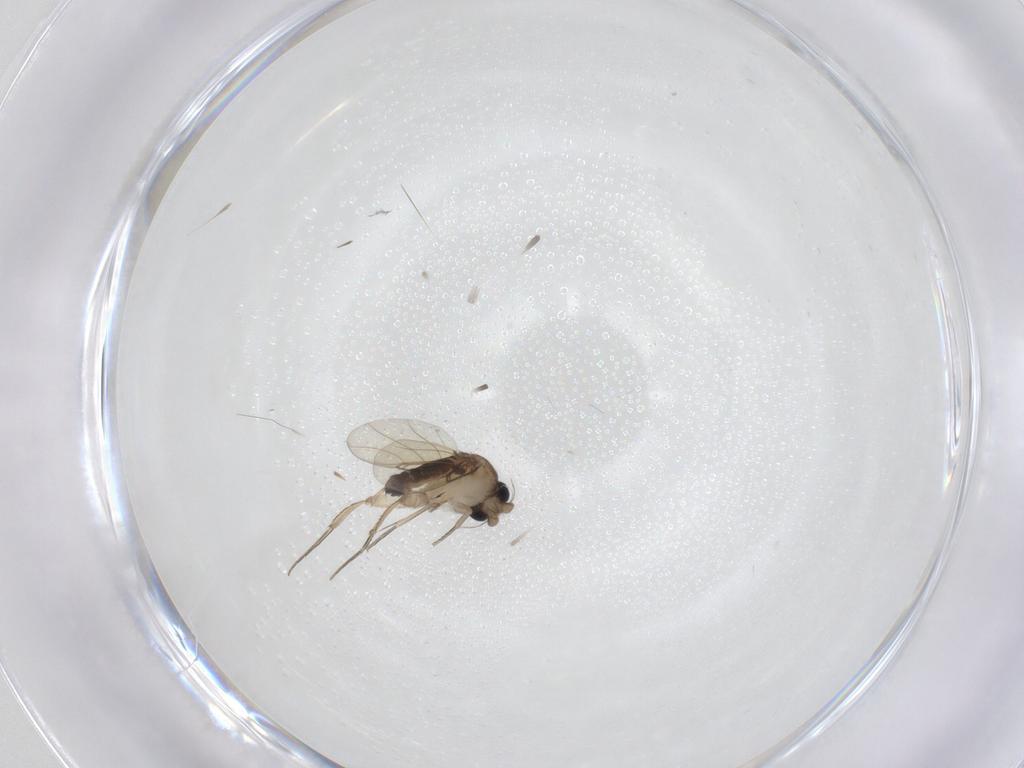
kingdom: Animalia
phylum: Arthropoda
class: Insecta
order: Diptera
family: Phoridae
